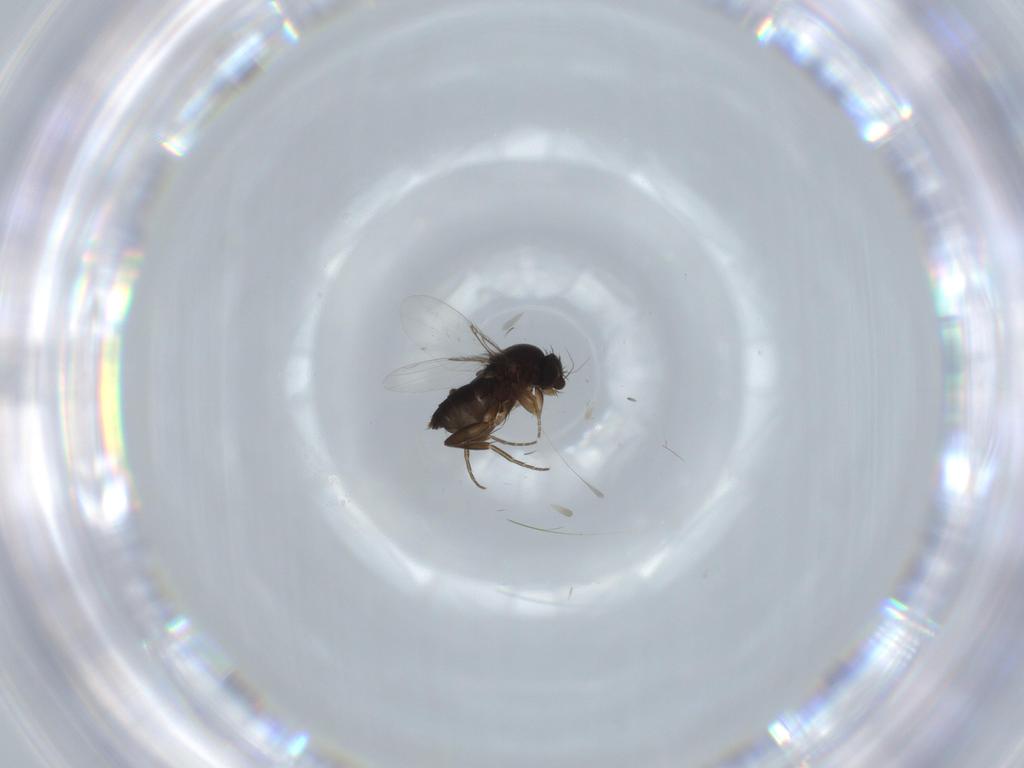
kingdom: Animalia
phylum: Arthropoda
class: Insecta
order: Diptera
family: Phoridae
